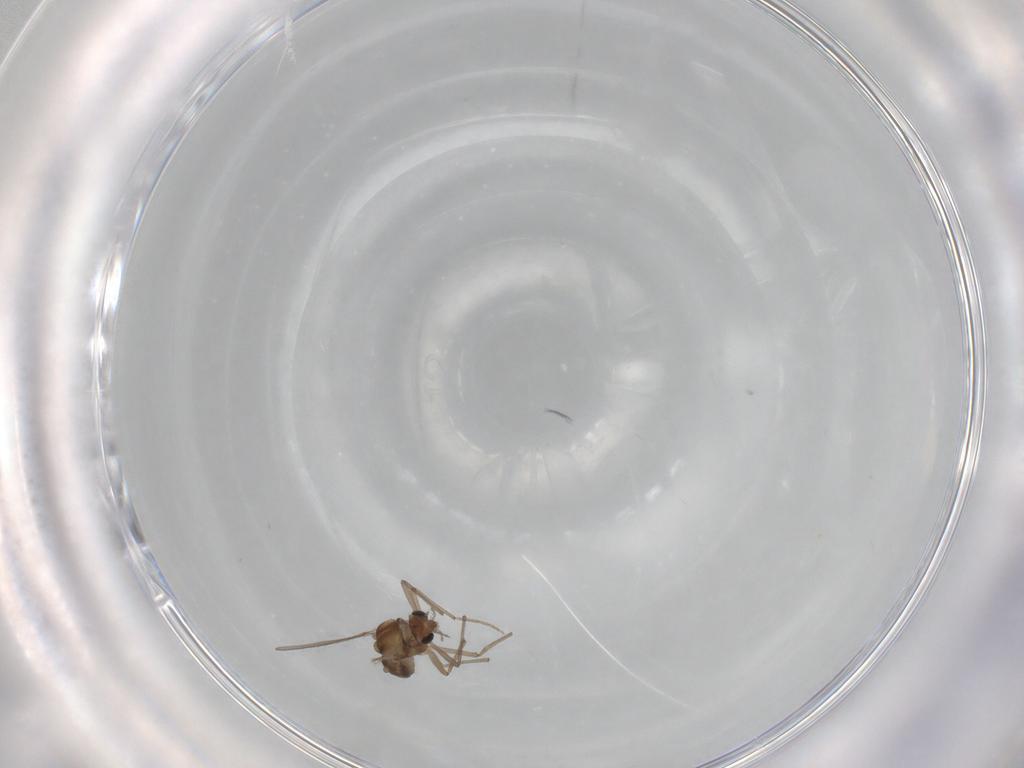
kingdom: Animalia
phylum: Arthropoda
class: Insecta
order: Diptera
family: Chironomidae
